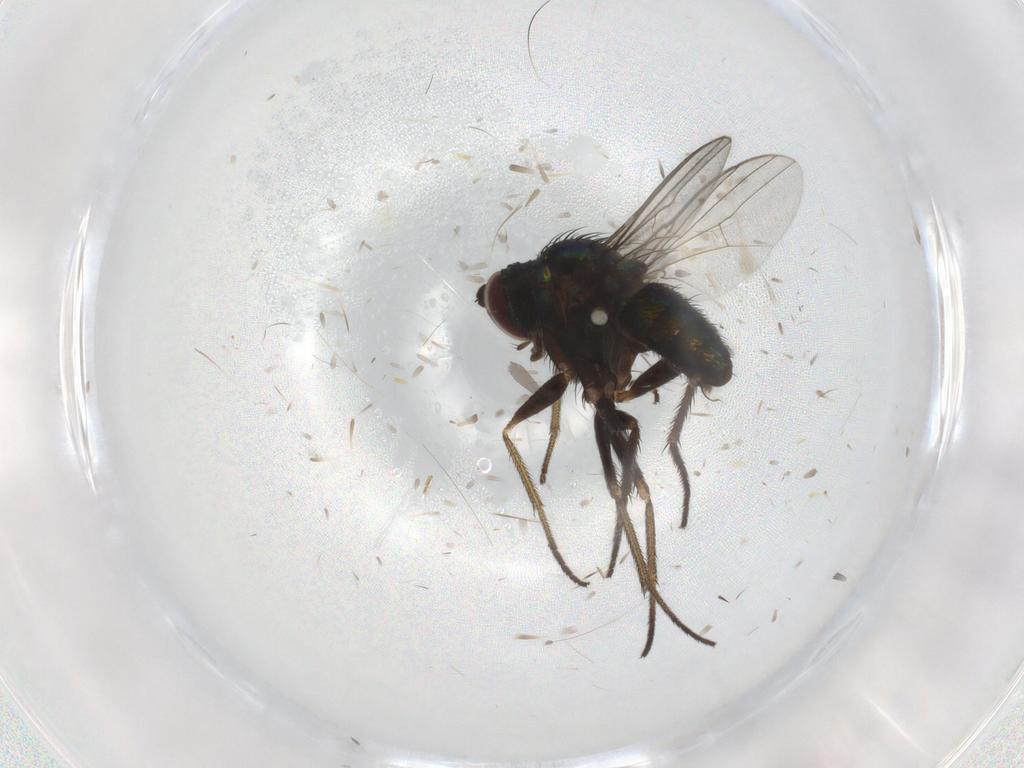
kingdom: Animalia
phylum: Arthropoda
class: Insecta
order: Diptera
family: Dolichopodidae
